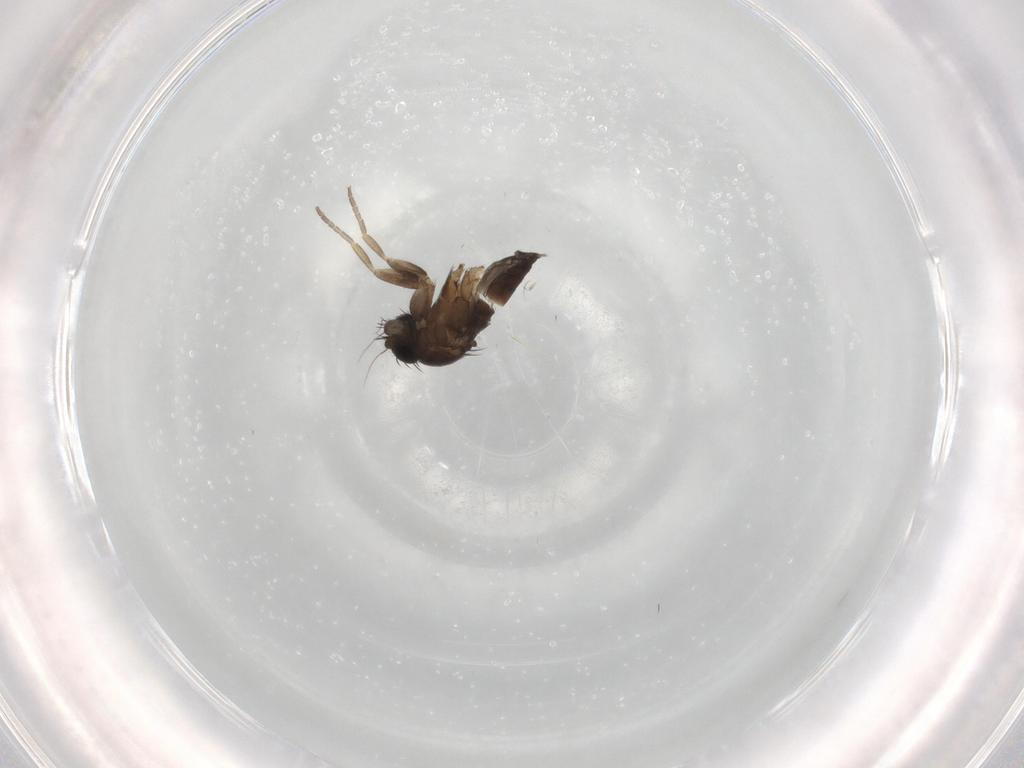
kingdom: Animalia
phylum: Arthropoda
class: Insecta
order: Diptera
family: Phoridae
